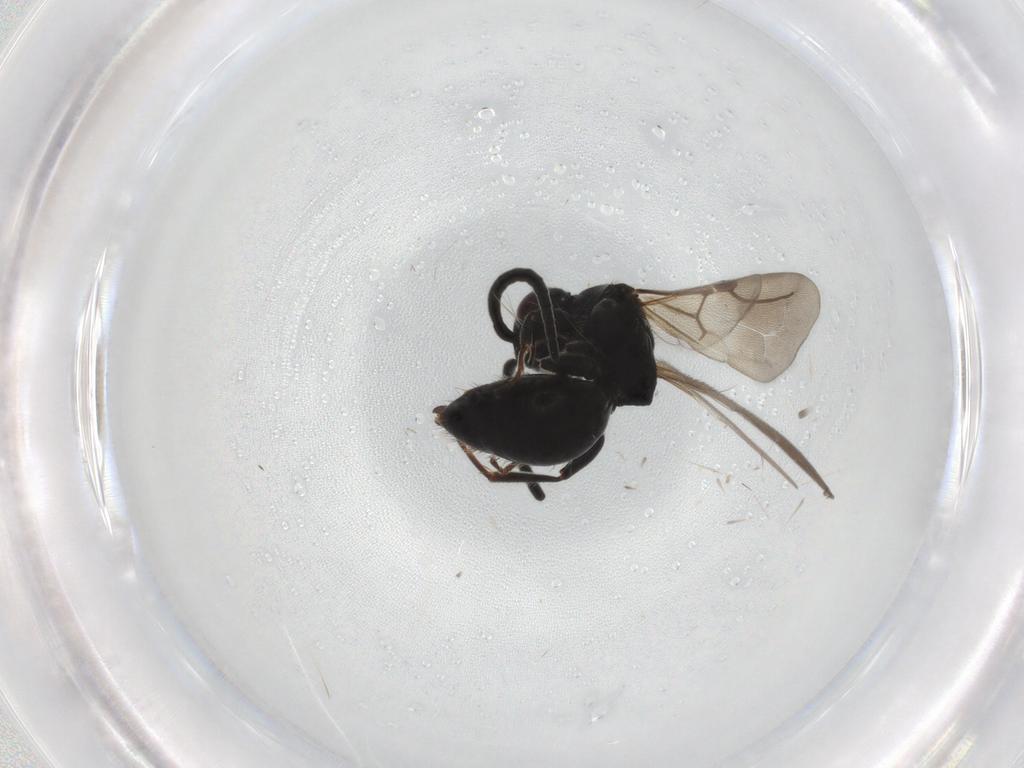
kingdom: Animalia
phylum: Arthropoda
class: Insecta
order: Hymenoptera
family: Bethylidae
